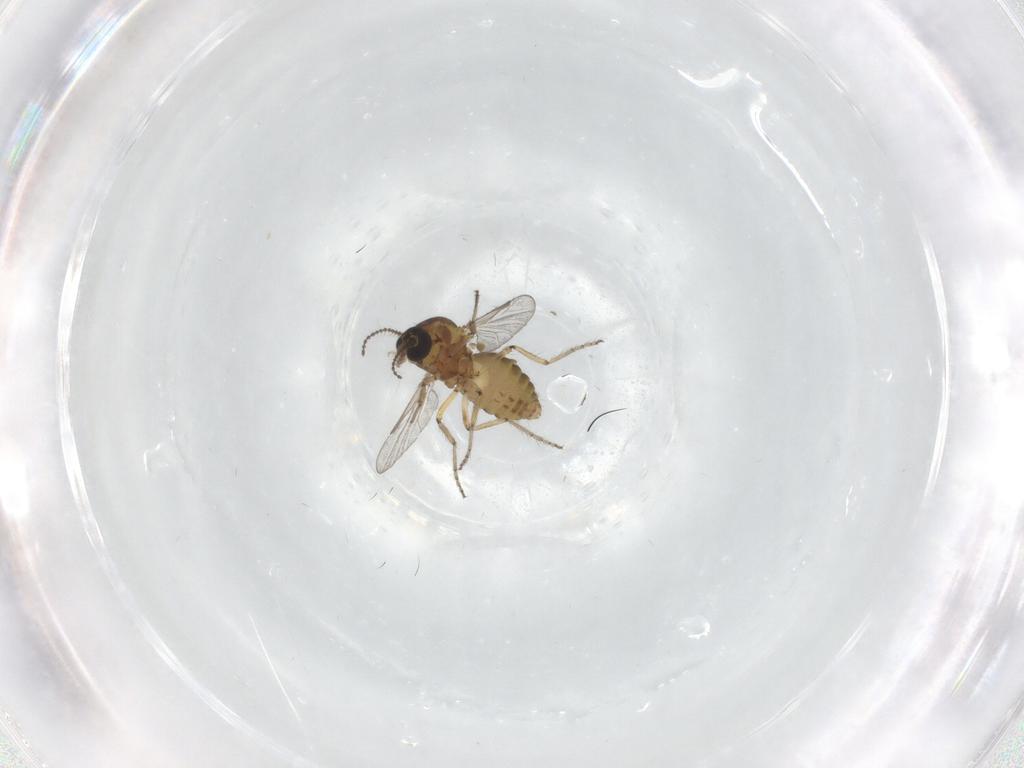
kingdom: Animalia
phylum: Arthropoda
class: Insecta
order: Diptera
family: Ceratopogonidae
